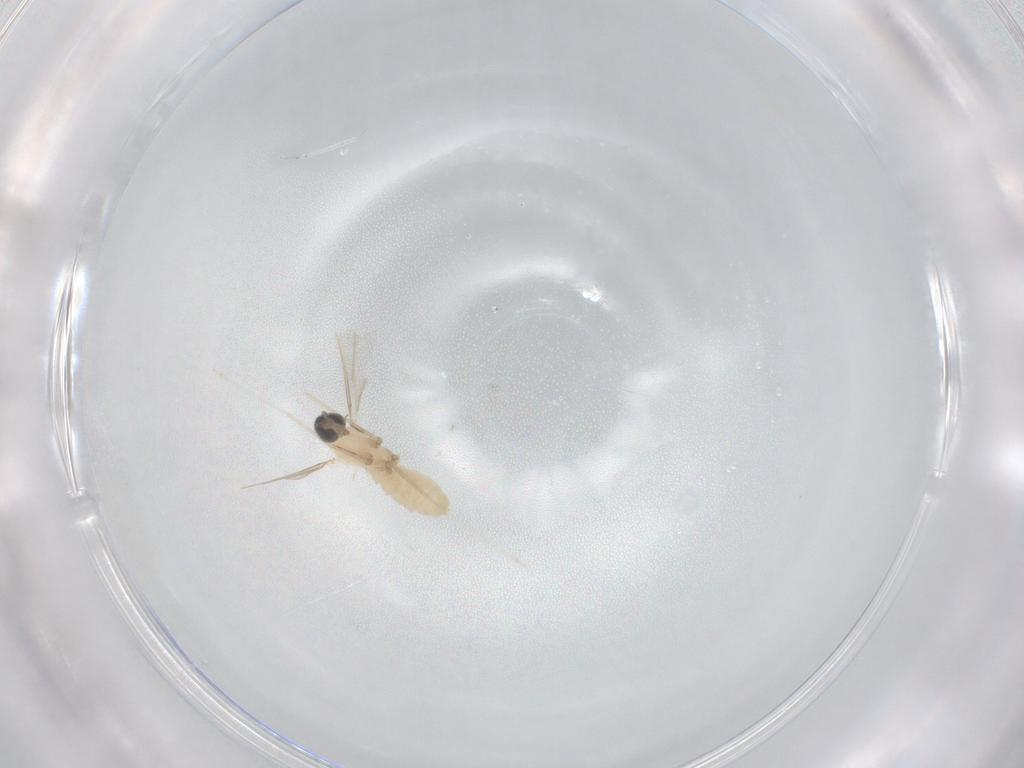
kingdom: Animalia
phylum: Arthropoda
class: Insecta
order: Diptera
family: Cecidomyiidae
